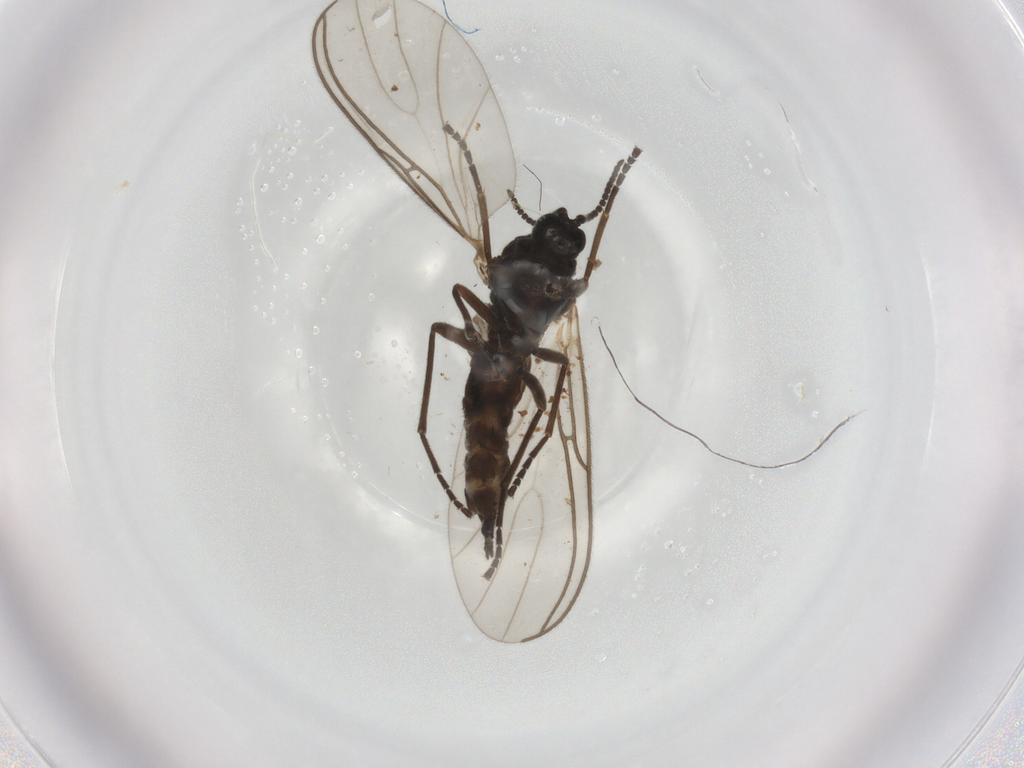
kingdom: Animalia
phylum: Arthropoda
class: Insecta
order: Diptera
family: Sciaridae
